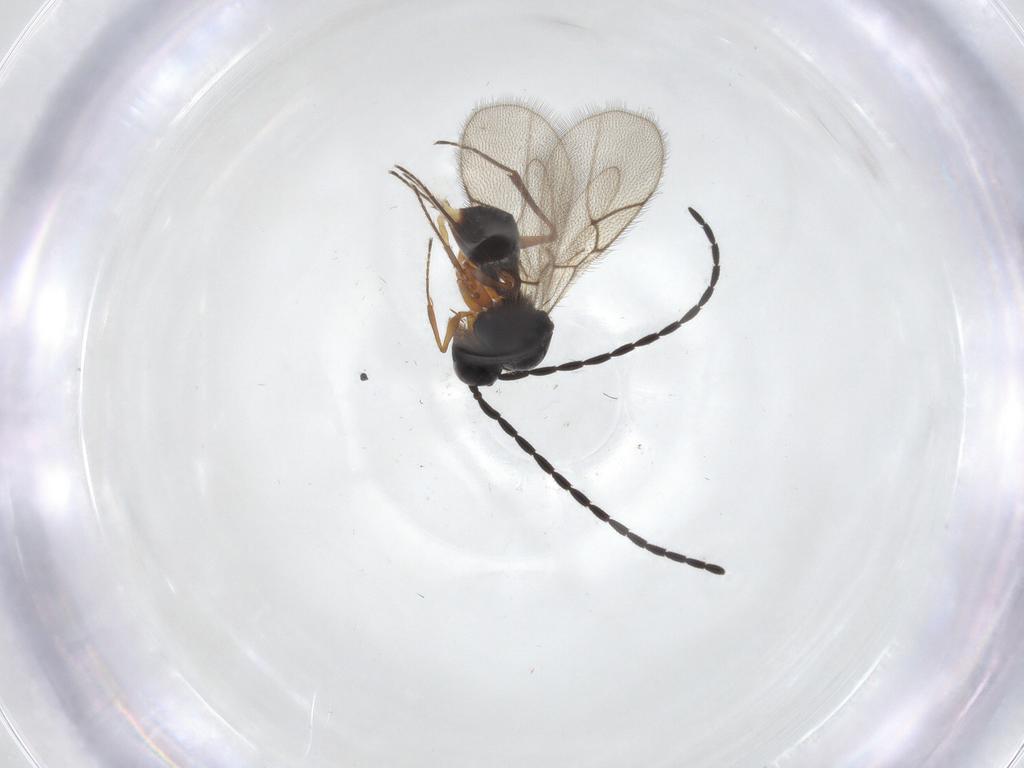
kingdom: Animalia
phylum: Arthropoda
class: Insecta
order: Hymenoptera
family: Figitidae
